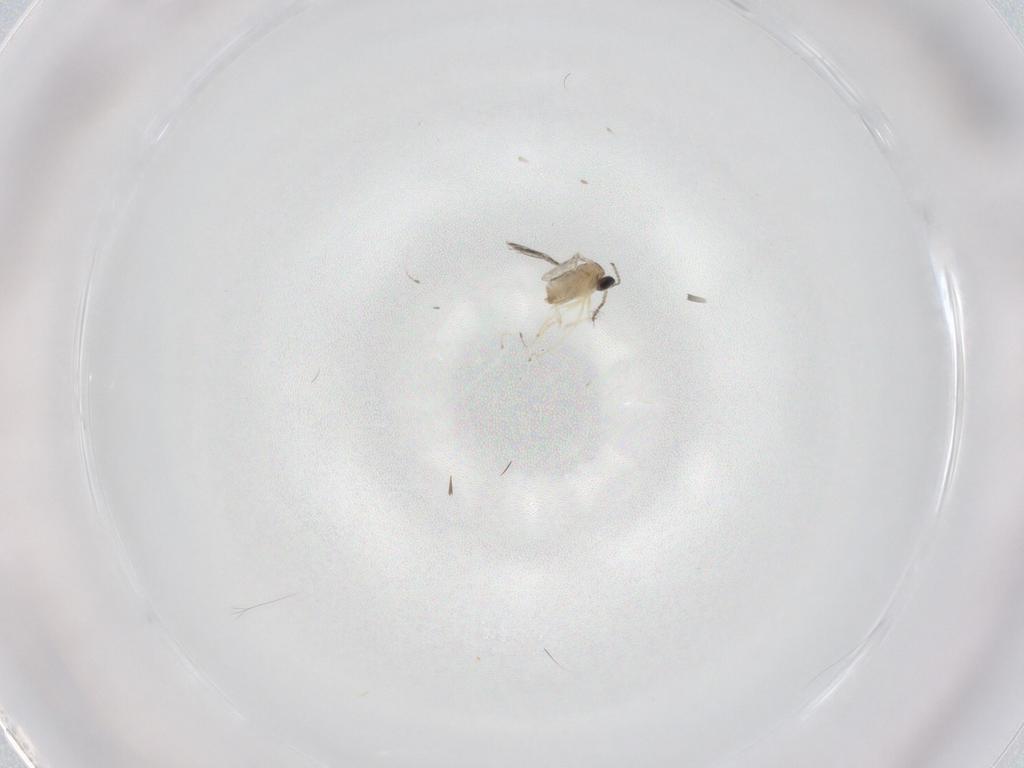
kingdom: Animalia
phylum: Arthropoda
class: Insecta
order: Diptera
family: Cecidomyiidae
